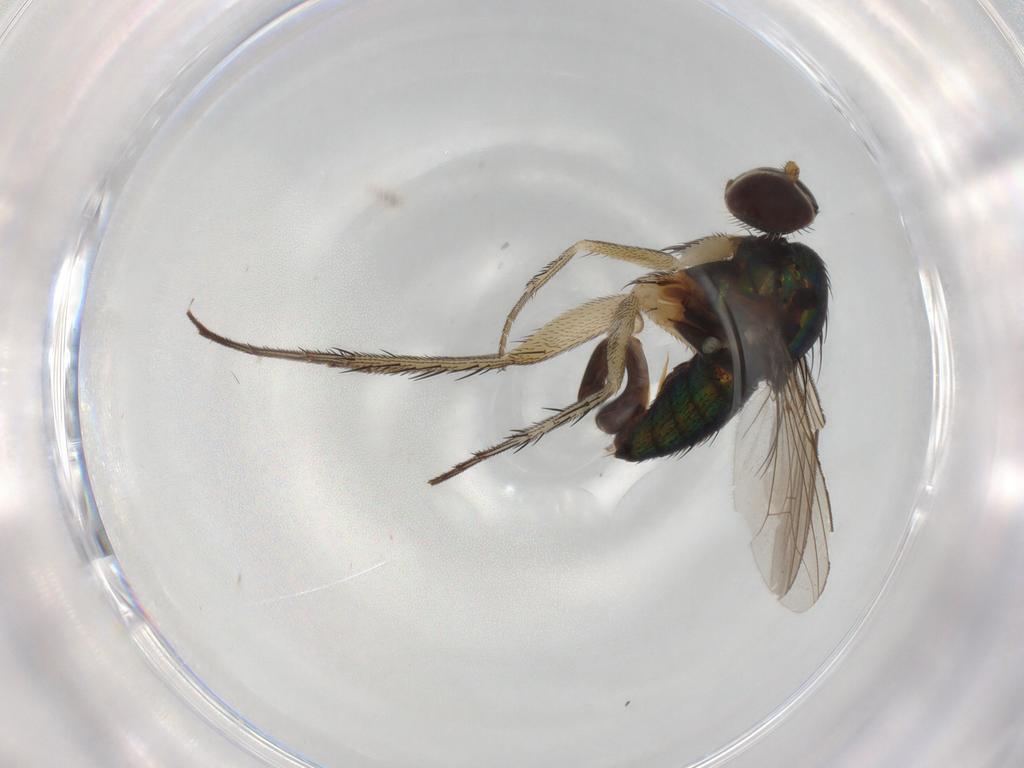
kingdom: Animalia
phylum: Arthropoda
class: Insecta
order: Diptera
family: Dolichopodidae
